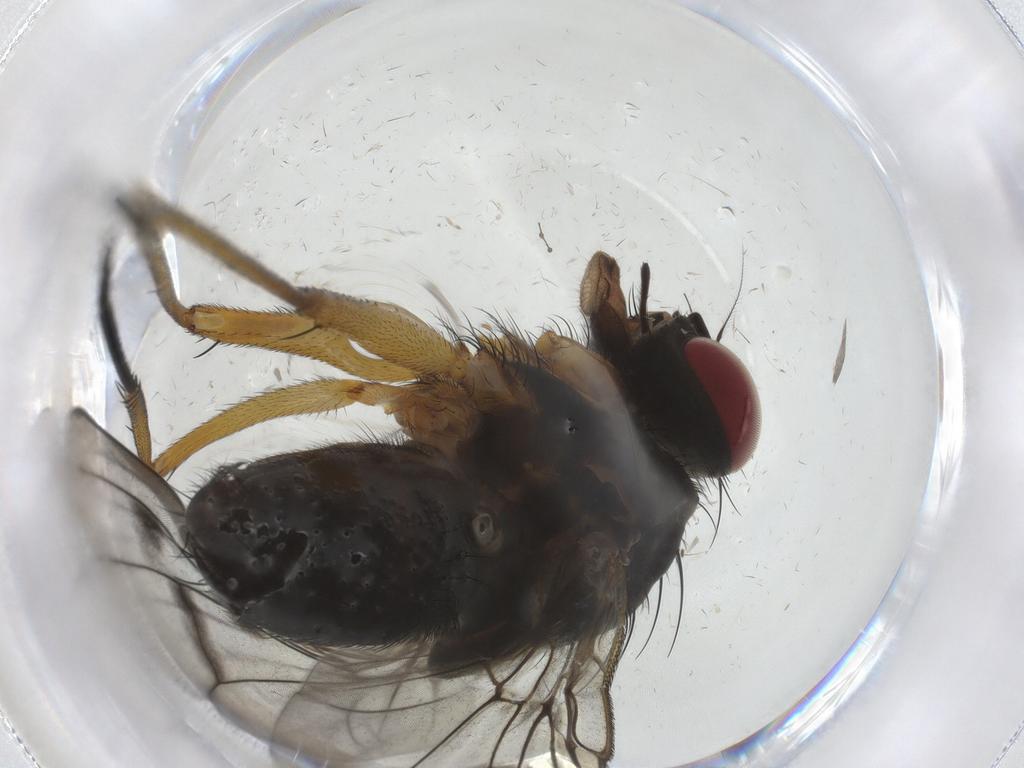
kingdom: Animalia
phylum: Arthropoda
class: Insecta
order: Diptera
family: Muscidae
